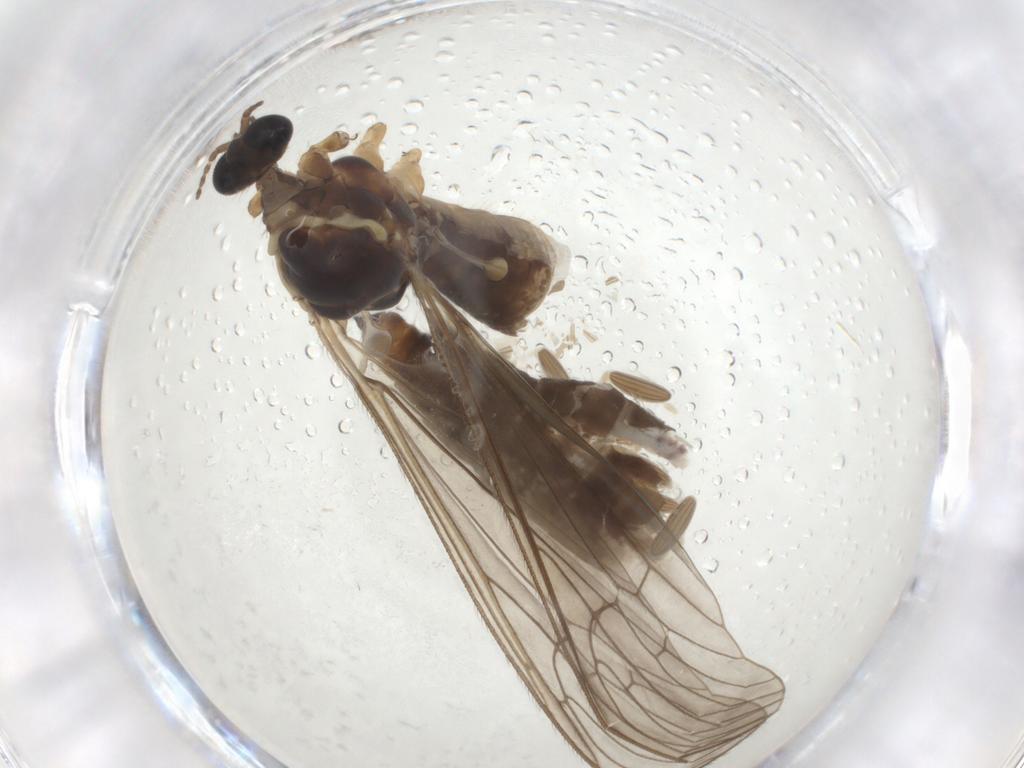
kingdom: Animalia
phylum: Arthropoda
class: Insecta
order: Diptera
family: Limoniidae
